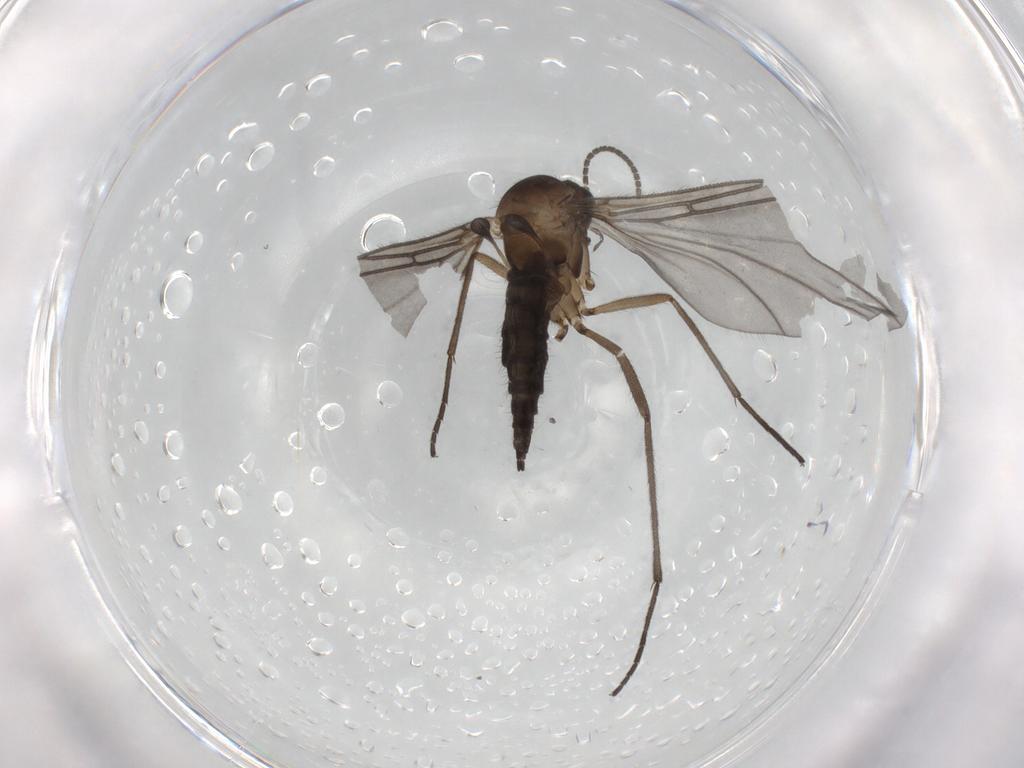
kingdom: Animalia
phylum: Arthropoda
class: Insecta
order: Diptera
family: Sciaridae
